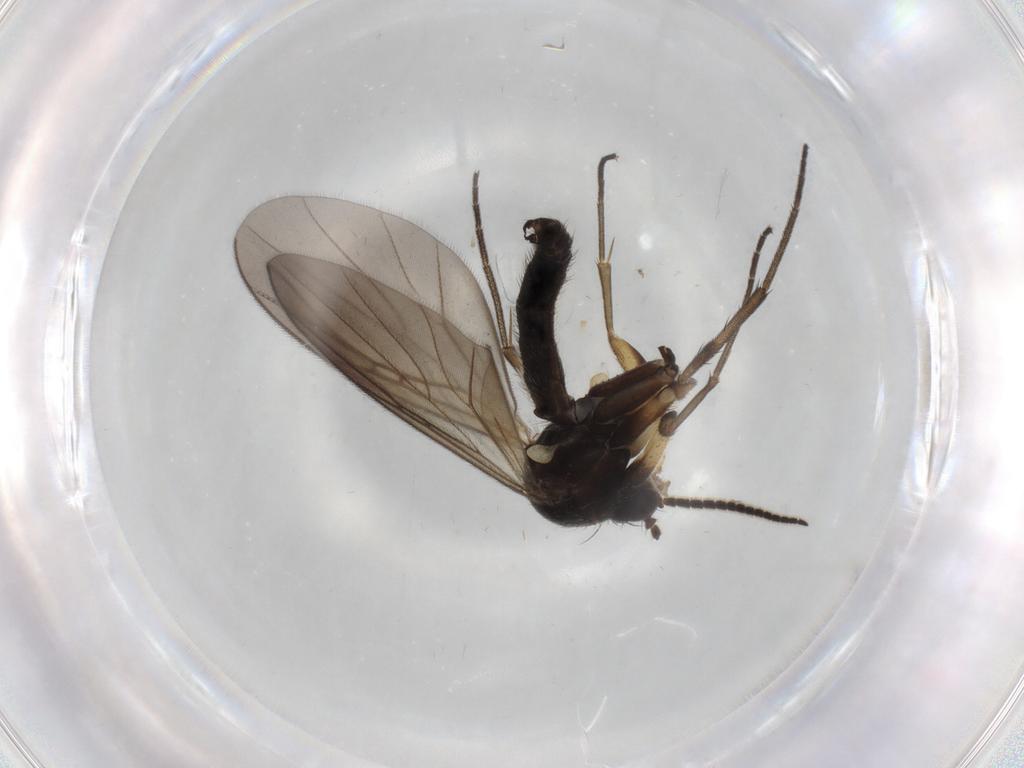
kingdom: Animalia
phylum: Arthropoda
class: Insecta
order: Diptera
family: Mycetophilidae
